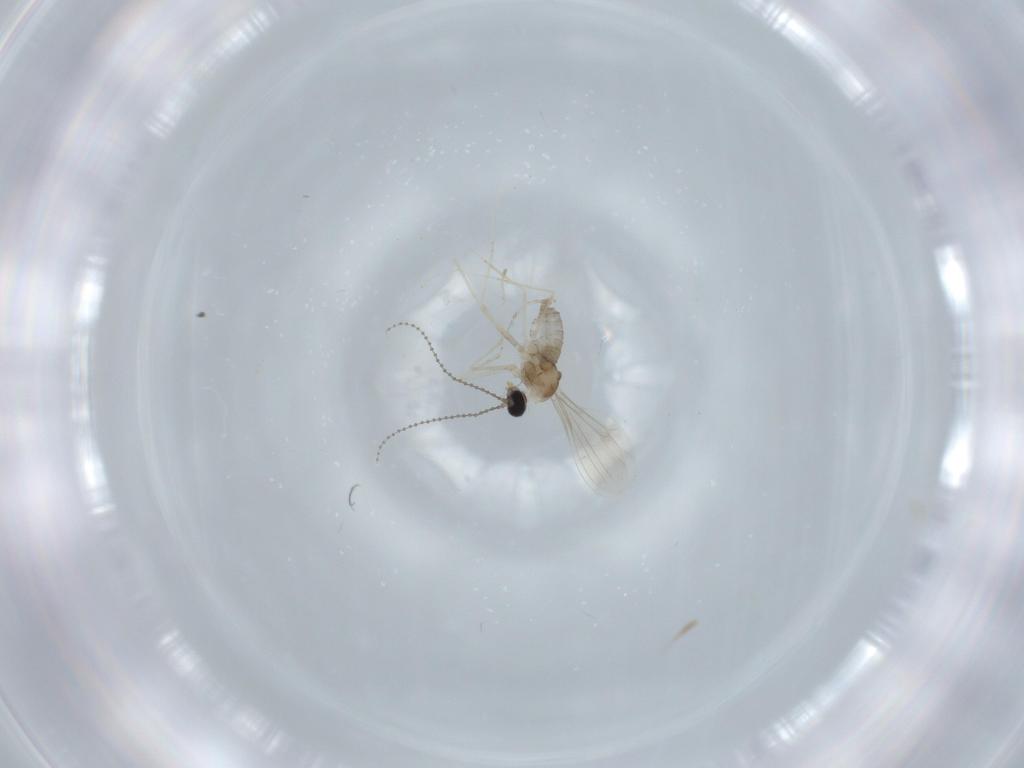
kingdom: Animalia
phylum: Arthropoda
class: Insecta
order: Diptera
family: Cecidomyiidae
